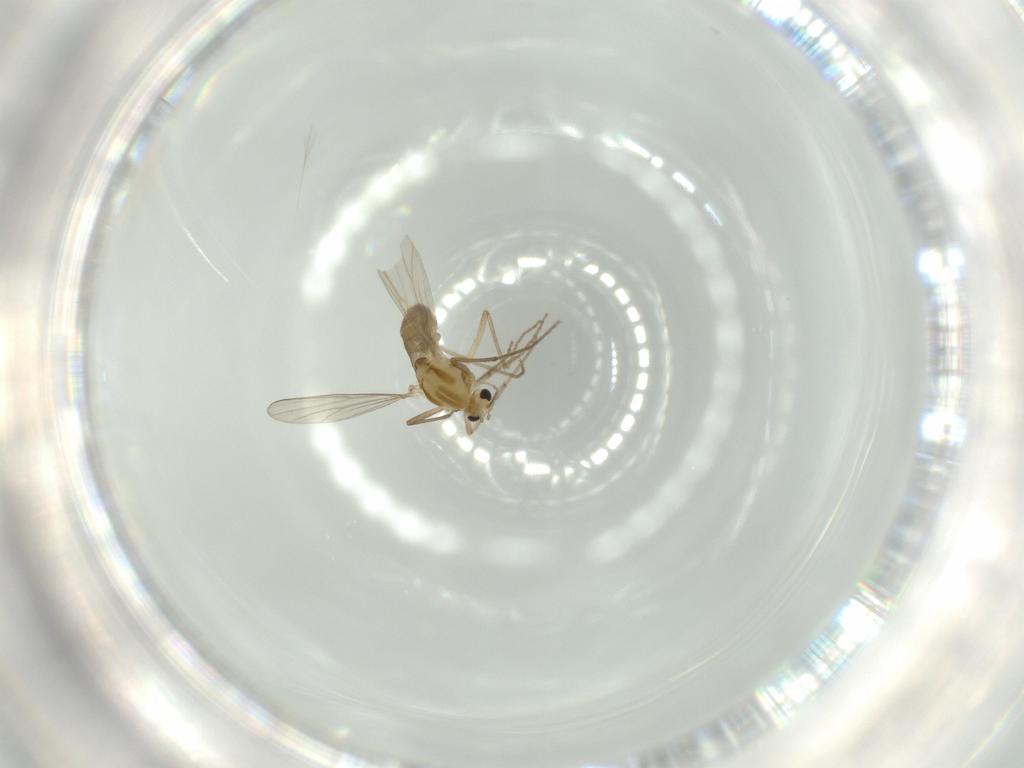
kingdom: Animalia
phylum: Arthropoda
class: Insecta
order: Diptera
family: Chironomidae
